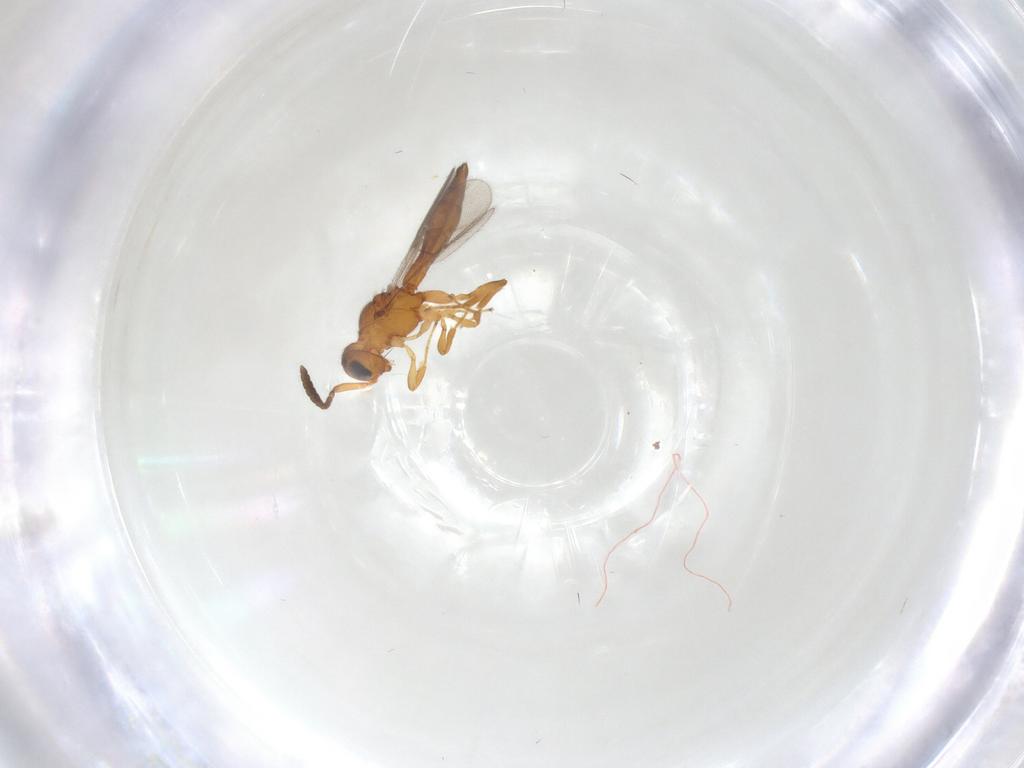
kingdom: Animalia
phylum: Arthropoda
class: Insecta
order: Hymenoptera
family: Scelionidae
